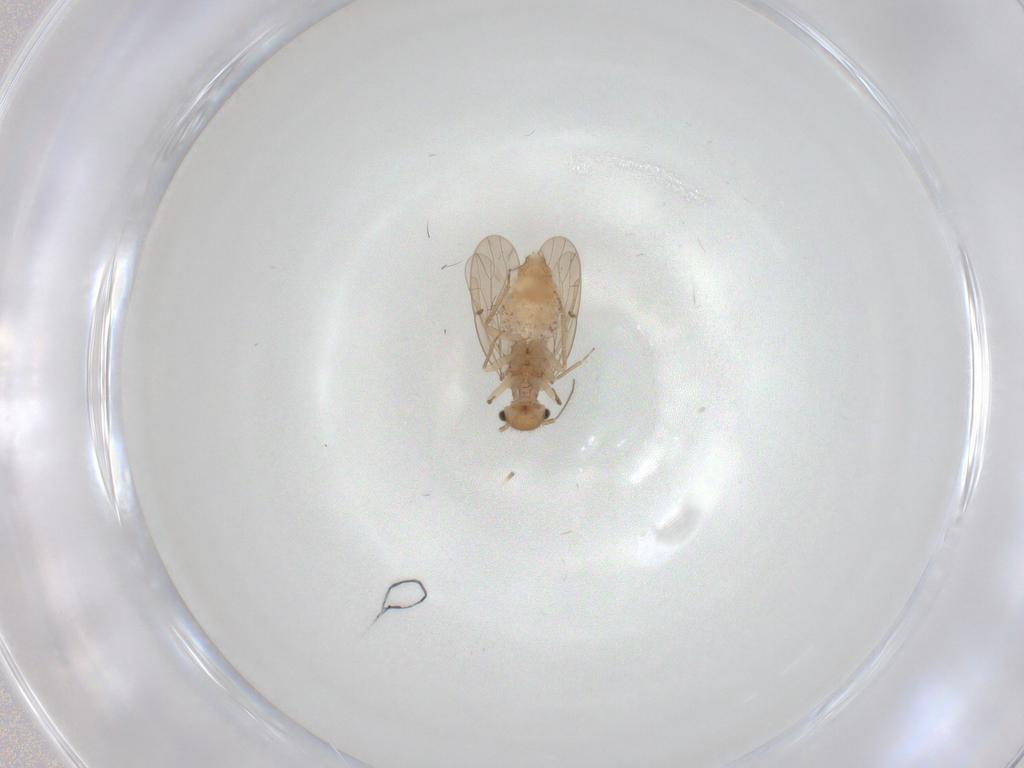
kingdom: Animalia
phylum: Arthropoda
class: Insecta
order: Psocodea
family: Ectopsocidae
